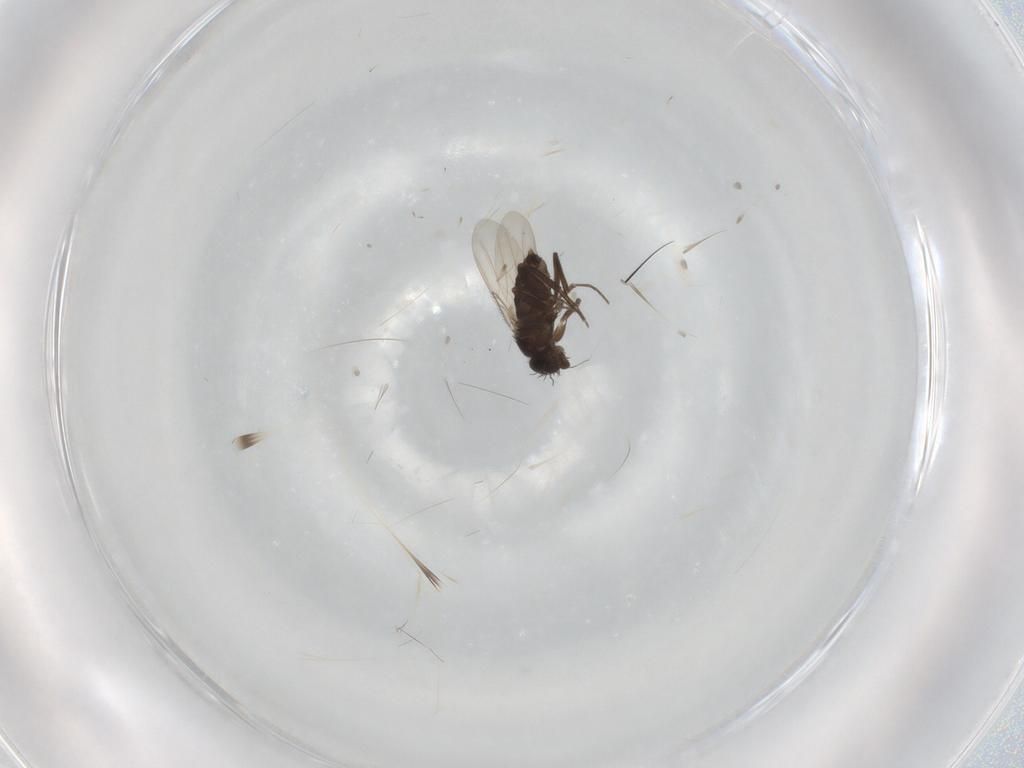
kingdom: Animalia
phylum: Arthropoda
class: Insecta
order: Diptera
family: Phoridae
